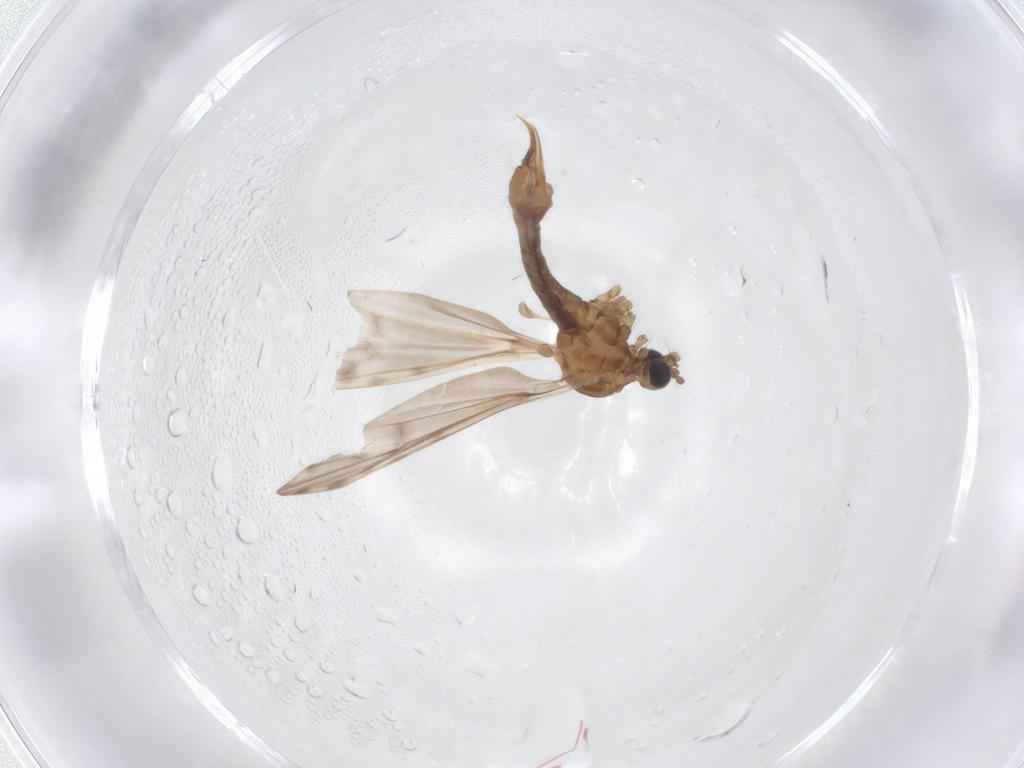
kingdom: Animalia
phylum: Arthropoda
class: Insecta
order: Diptera
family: Limoniidae
